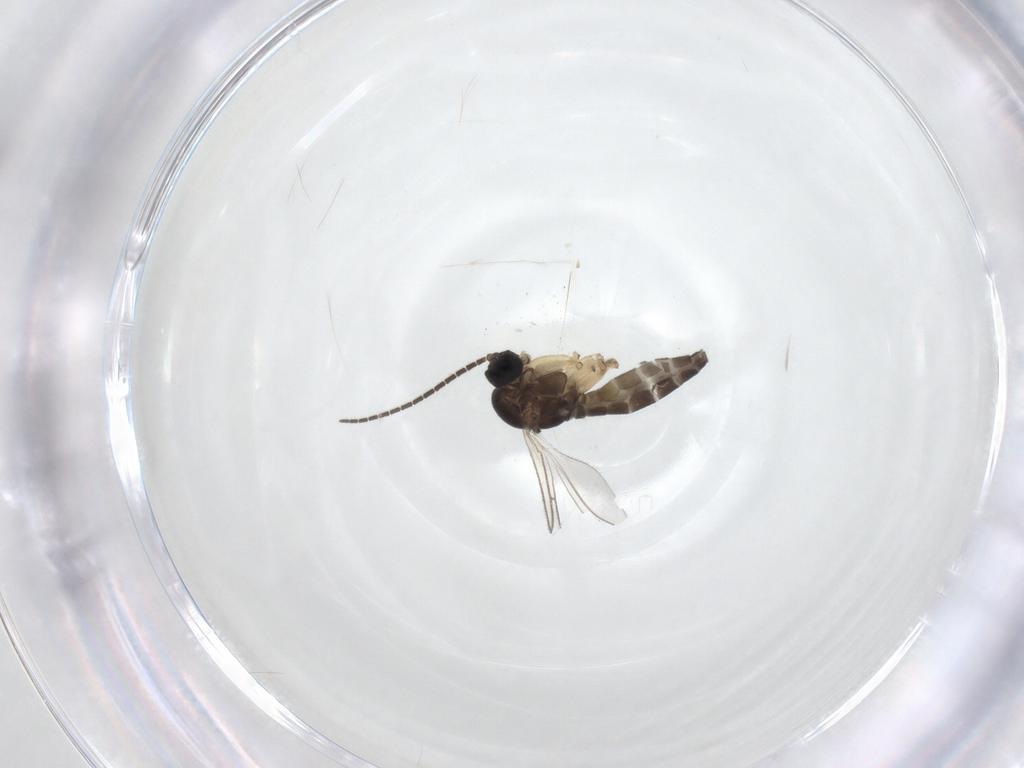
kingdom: Animalia
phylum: Arthropoda
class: Insecta
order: Diptera
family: Sciaridae
